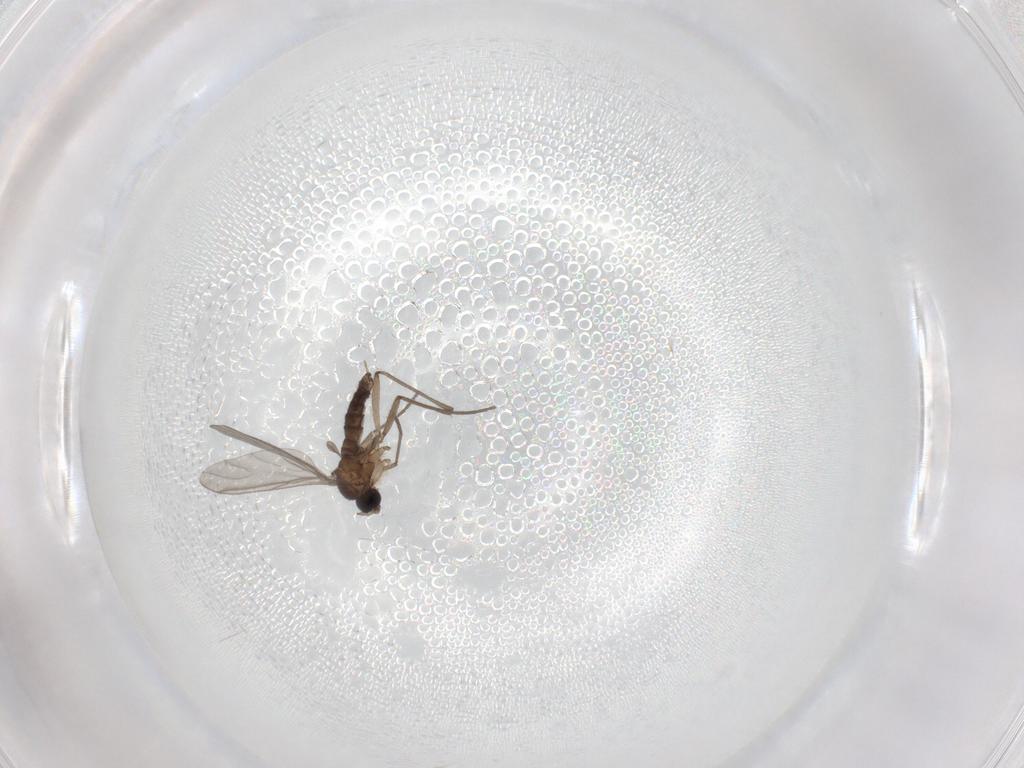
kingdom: Animalia
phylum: Arthropoda
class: Insecta
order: Diptera
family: Sciaridae
